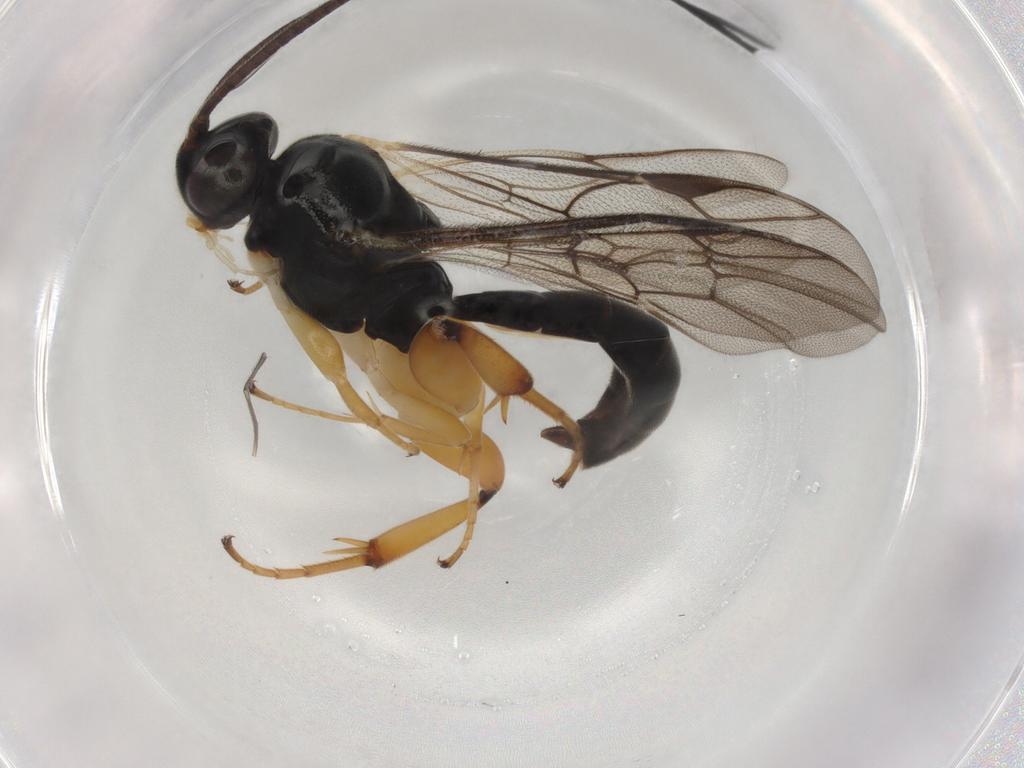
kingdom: Animalia
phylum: Arthropoda
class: Insecta
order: Hymenoptera
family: Ichneumonidae
